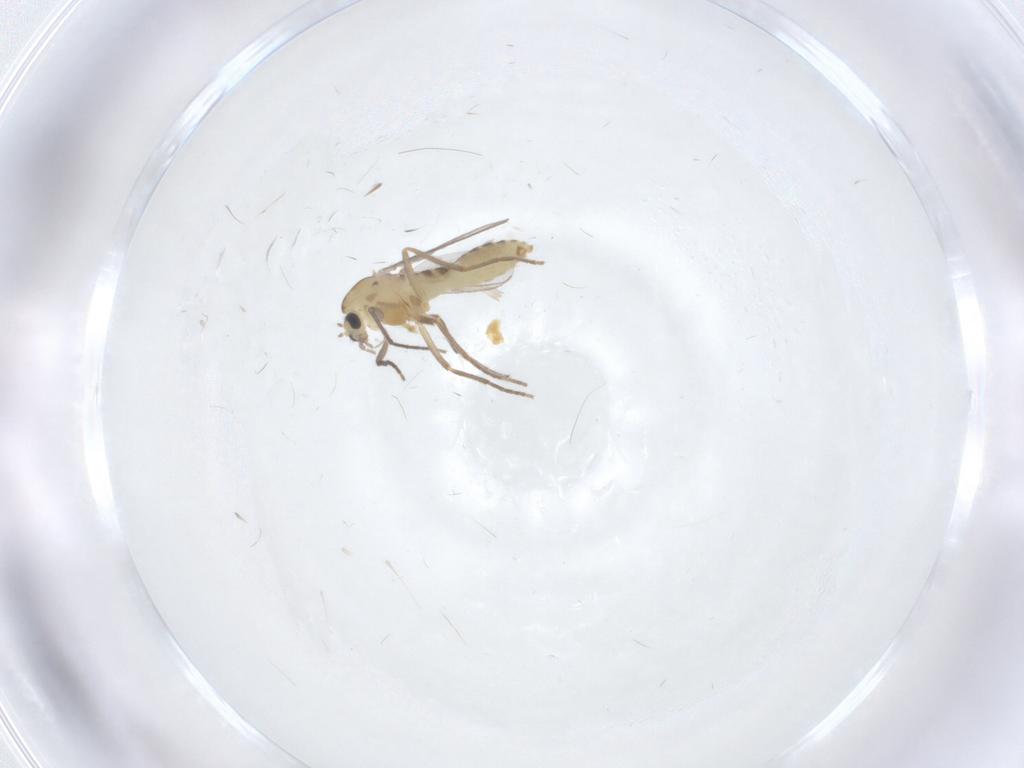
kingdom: Animalia
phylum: Arthropoda
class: Insecta
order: Diptera
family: Chironomidae
